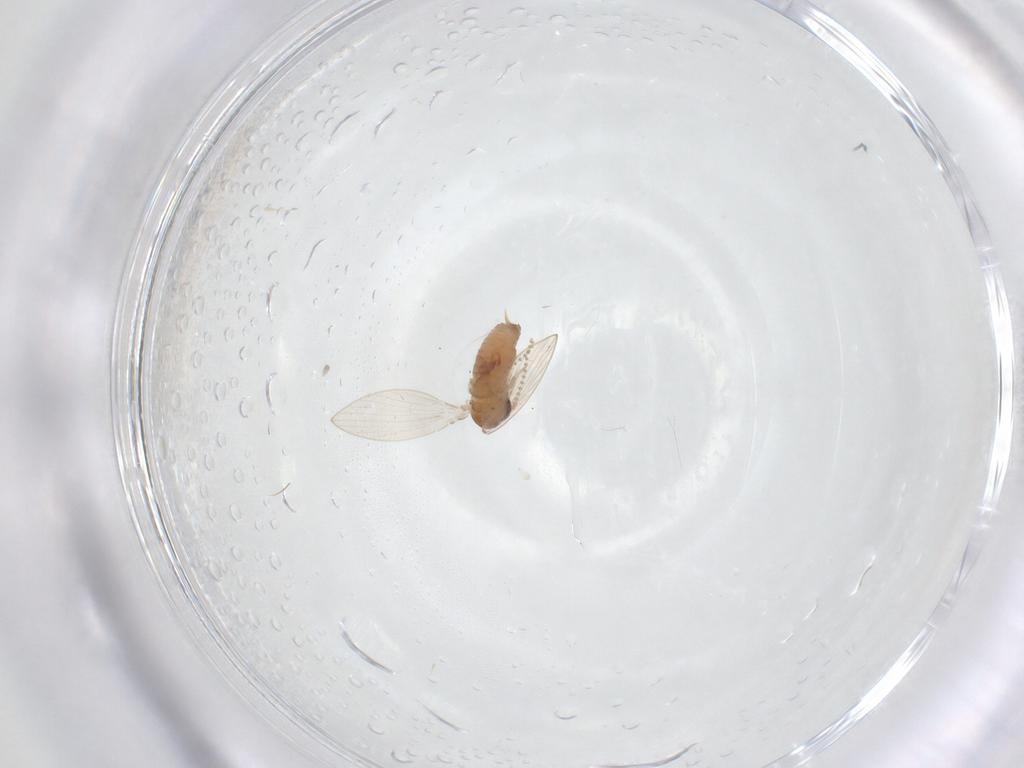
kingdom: Animalia
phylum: Arthropoda
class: Insecta
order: Diptera
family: Psychodidae
